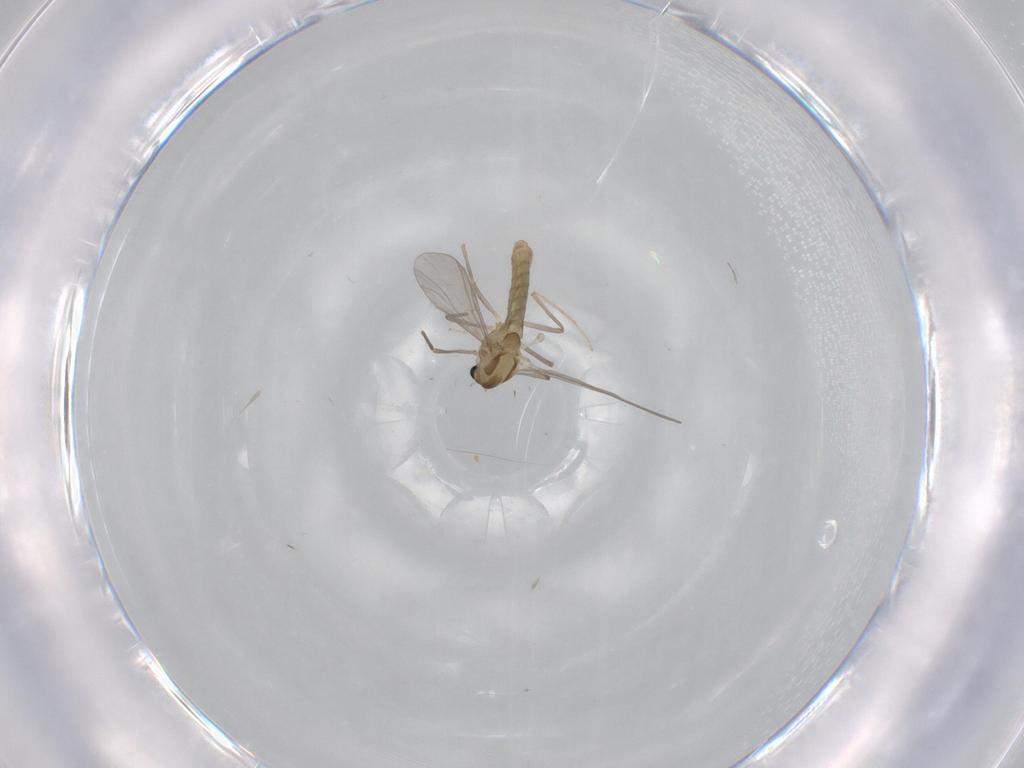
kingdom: Animalia
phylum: Arthropoda
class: Insecta
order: Diptera
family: Chironomidae
